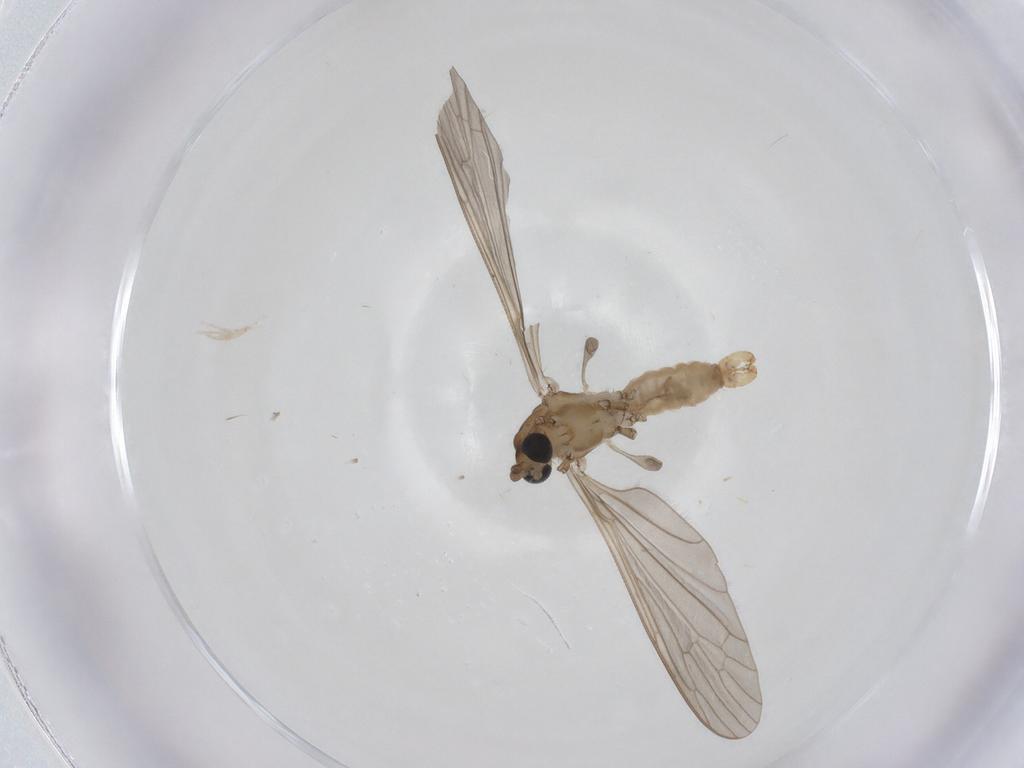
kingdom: Animalia
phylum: Arthropoda
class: Insecta
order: Diptera
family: Limoniidae
